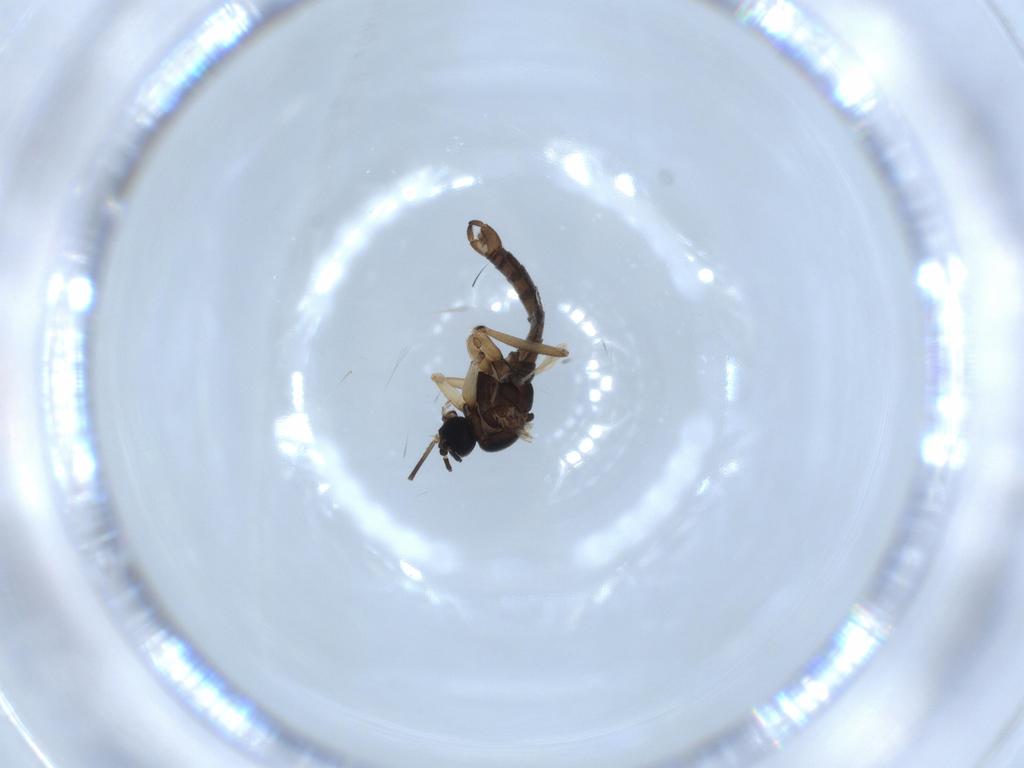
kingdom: Animalia
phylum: Arthropoda
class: Insecta
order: Diptera
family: Sciaridae
